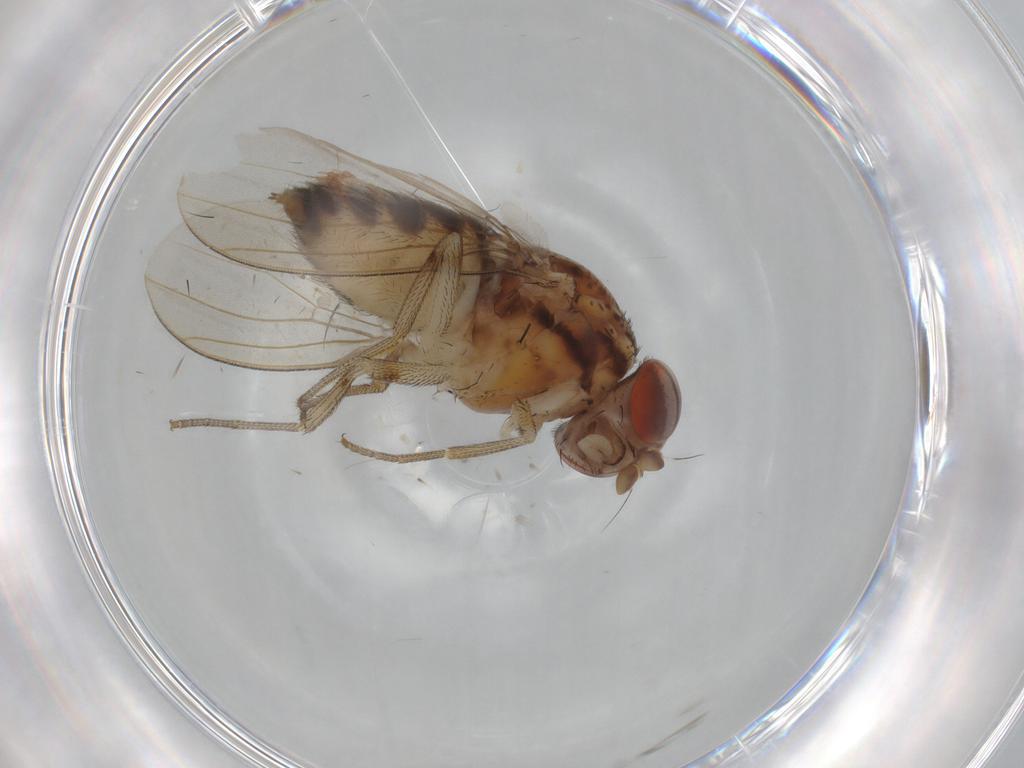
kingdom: Animalia
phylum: Arthropoda
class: Insecta
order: Diptera
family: Drosophilidae
